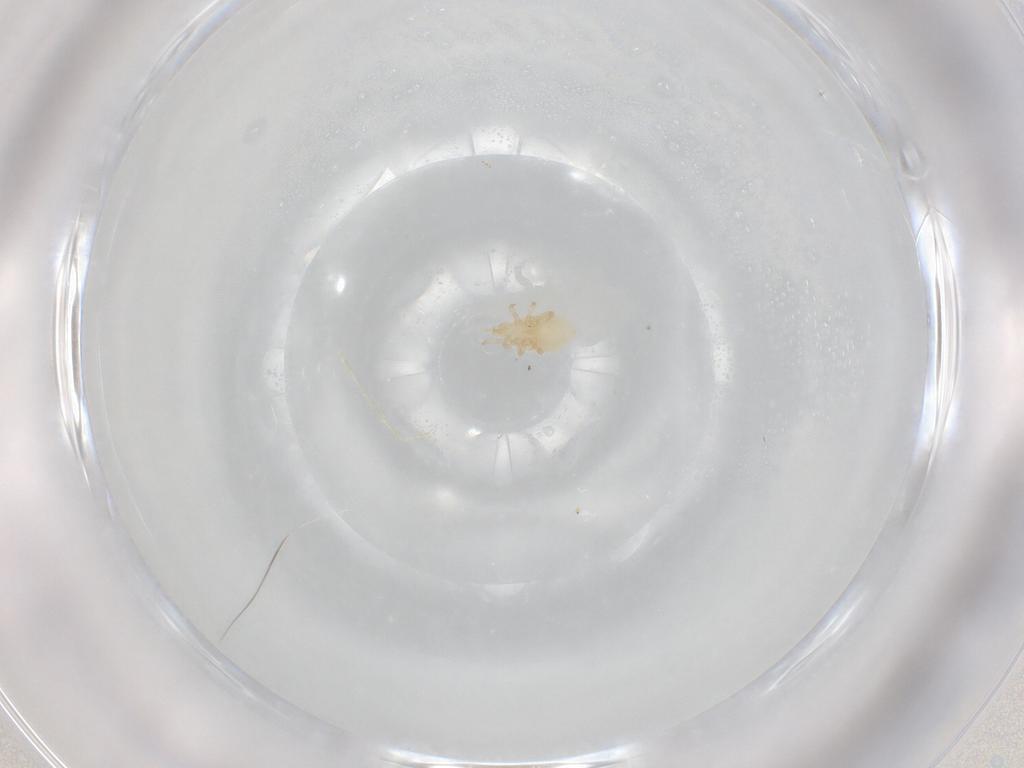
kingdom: Animalia
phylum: Arthropoda
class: Arachnida
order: Mesostigmata
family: Blattisociidae
